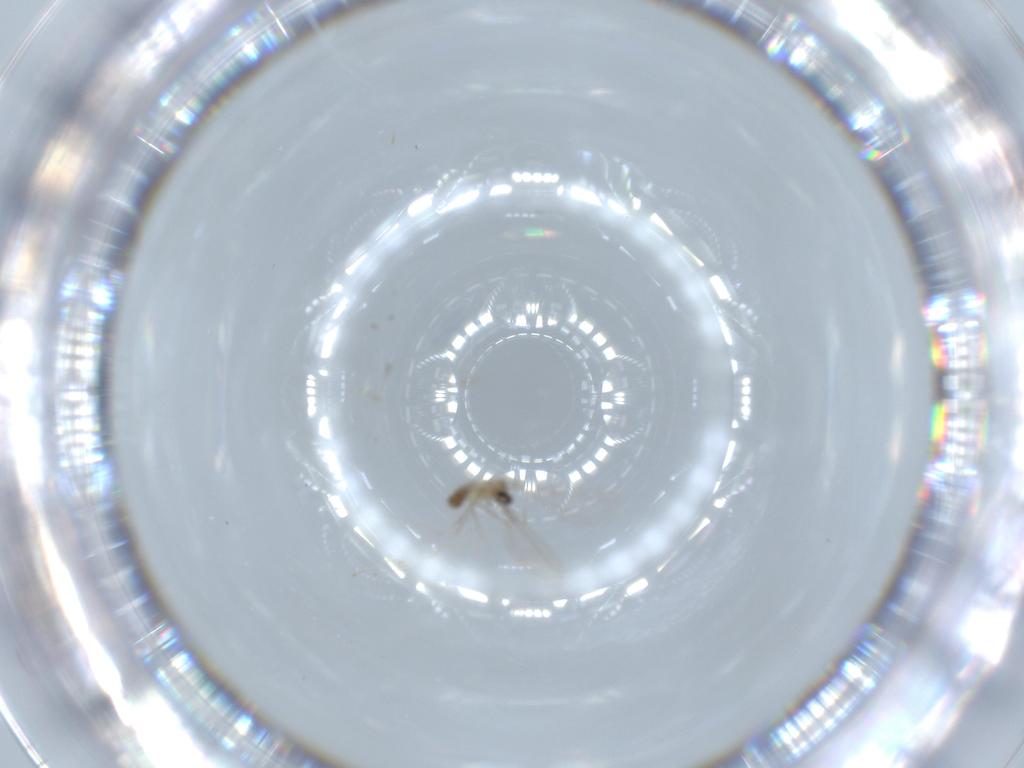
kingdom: Animalia
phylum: Arthropoda
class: Insecta
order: Diptera
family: Cecidomyiidae
